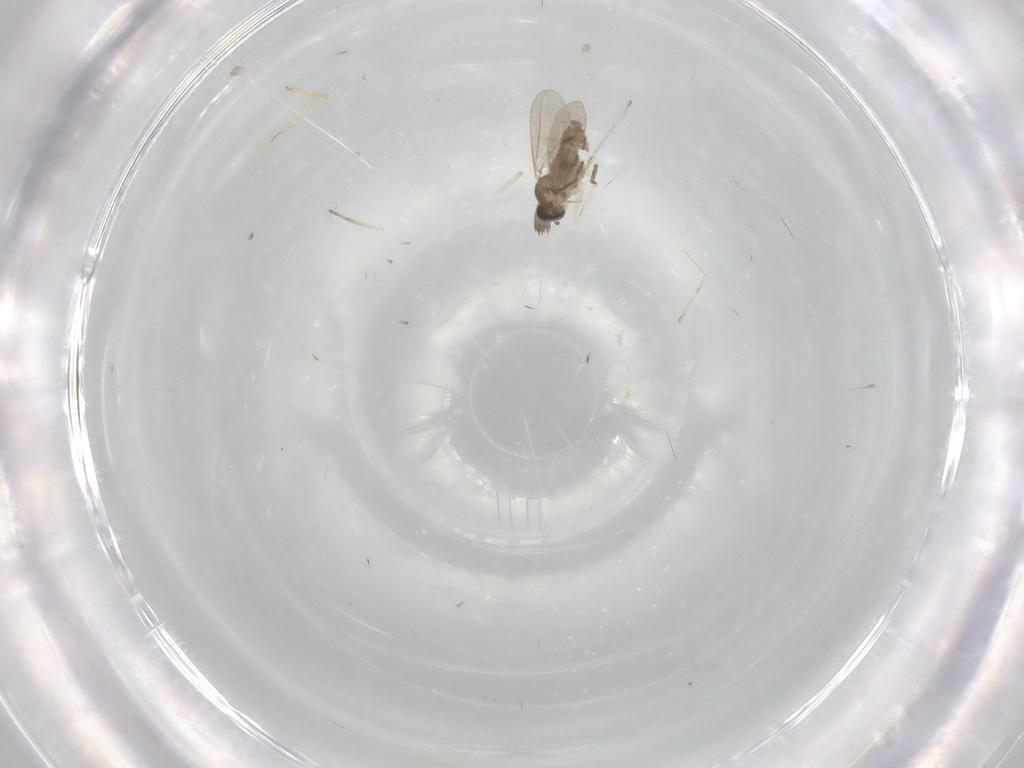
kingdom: Animalia
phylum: Arthropoda
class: Insecta
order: Diptera
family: Psychodidae
